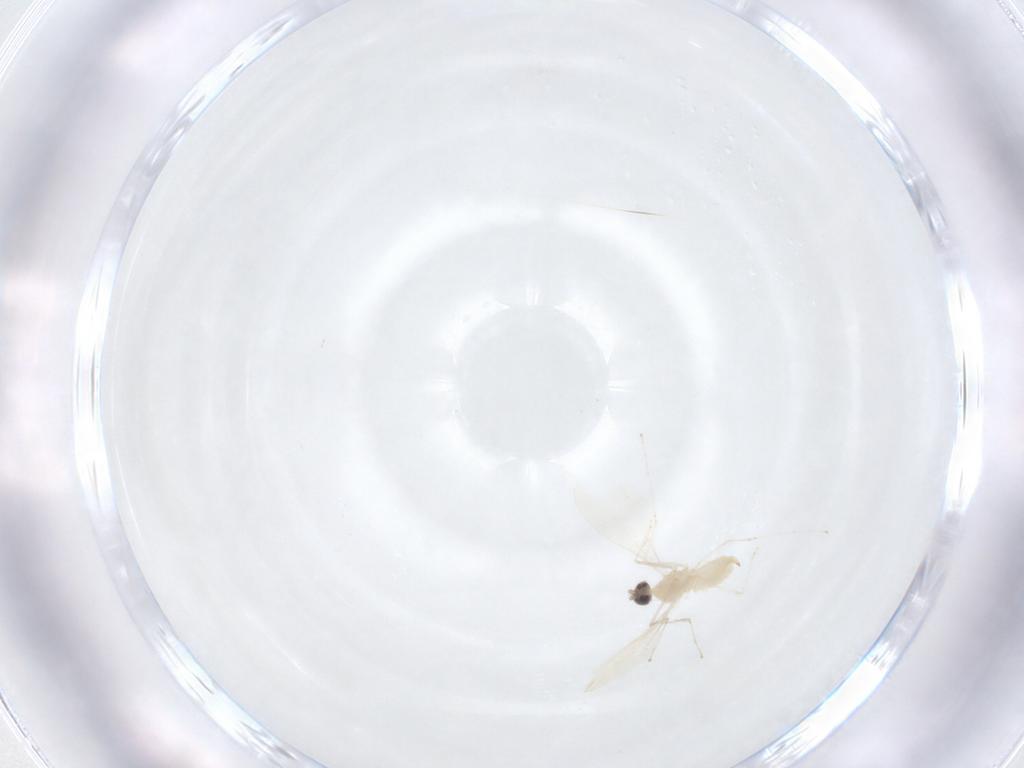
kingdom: Animalia
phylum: Arthropoda
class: Insecta
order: Diptera
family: Cecidomyiidae
